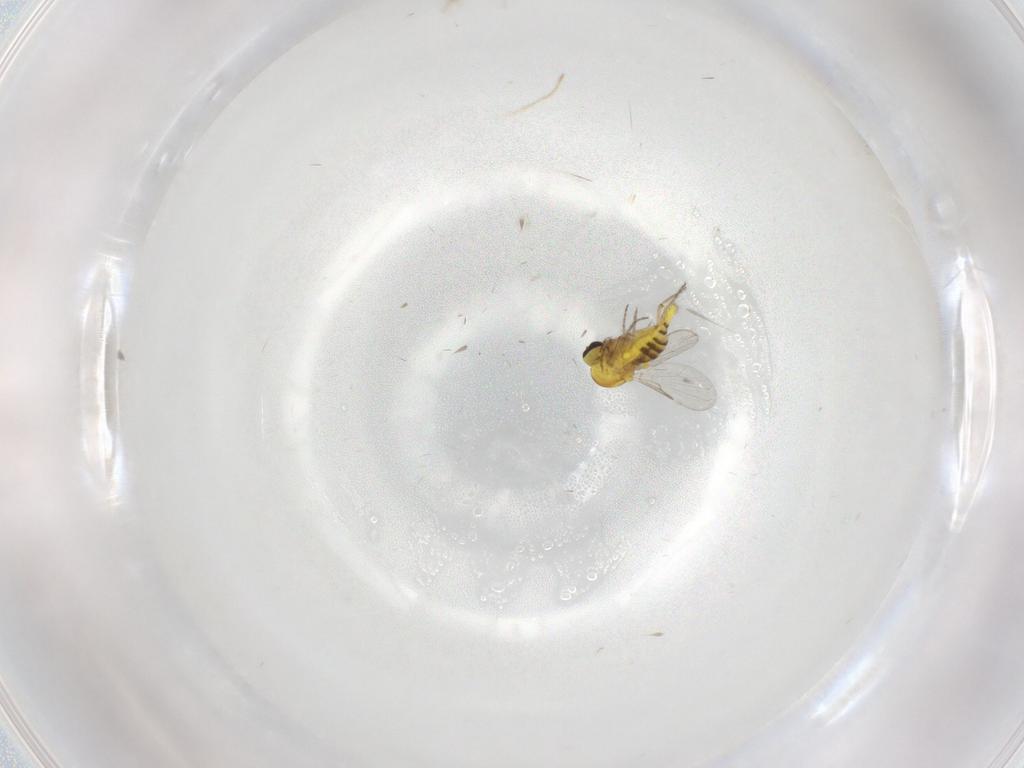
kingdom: Animalia
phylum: Arthropoda
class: Insecta
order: Diptera
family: Ceratopogonidae
